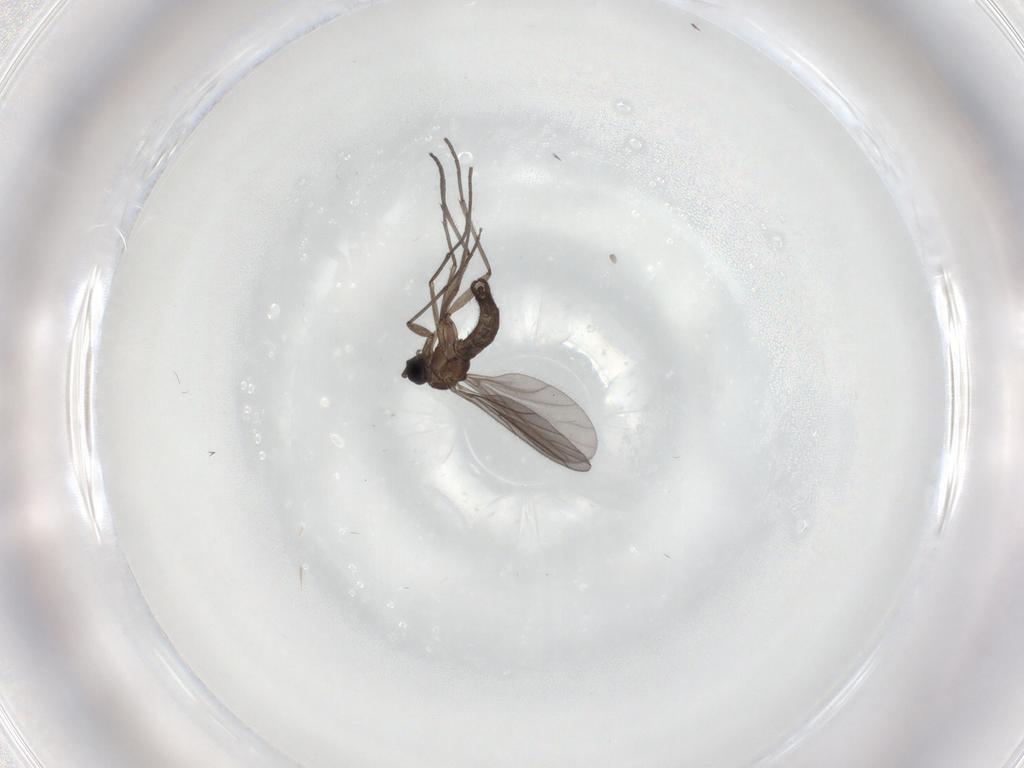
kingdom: Animalia
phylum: Arthropoda
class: Insecta
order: Diptera
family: Sciaridae
